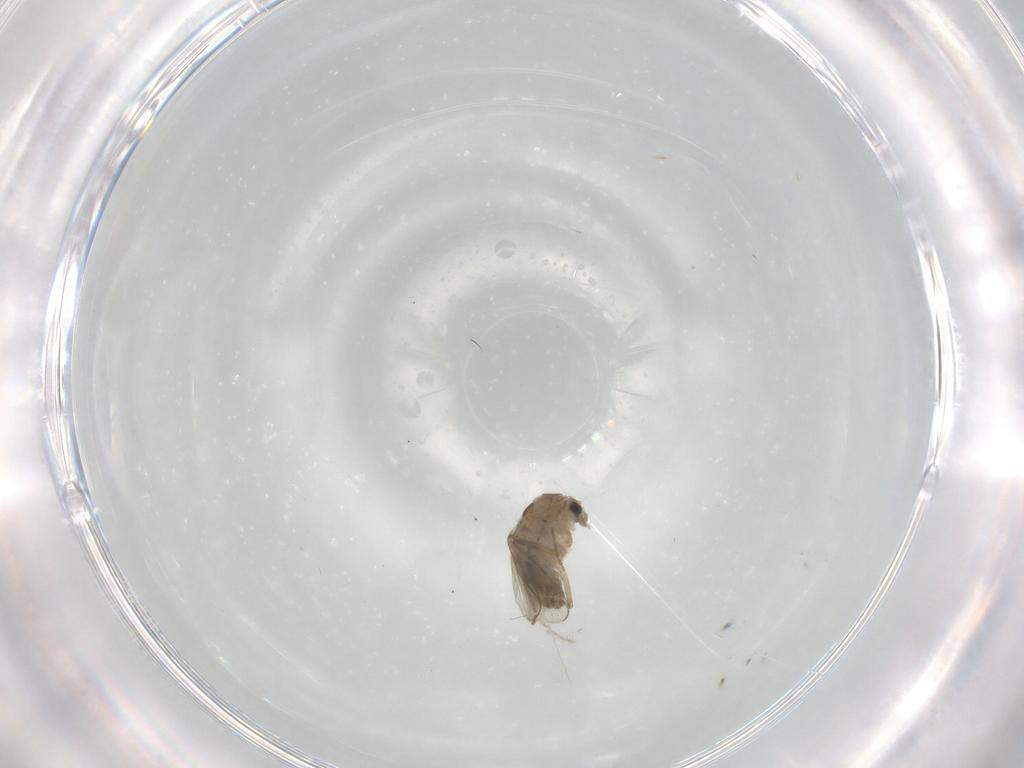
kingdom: Animalia
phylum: Arthropoda
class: Insecta
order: Diptera
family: Chironomidae
